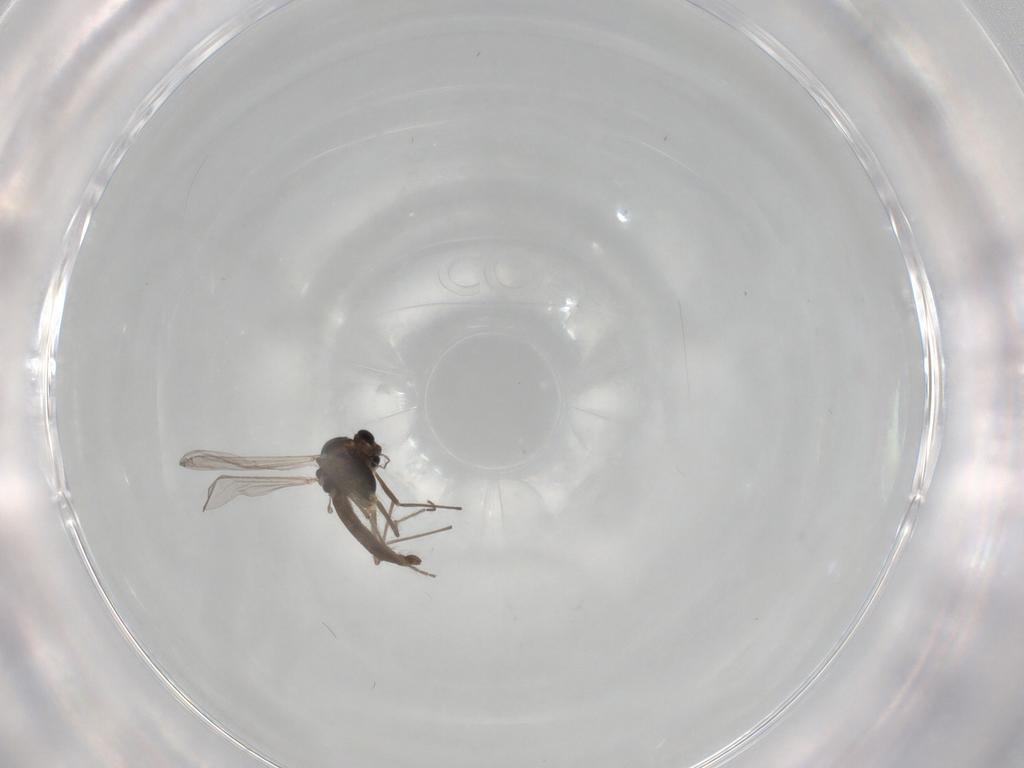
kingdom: Animalia
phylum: Arthropoda
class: Insecta
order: Diptera
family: Chironomidae
